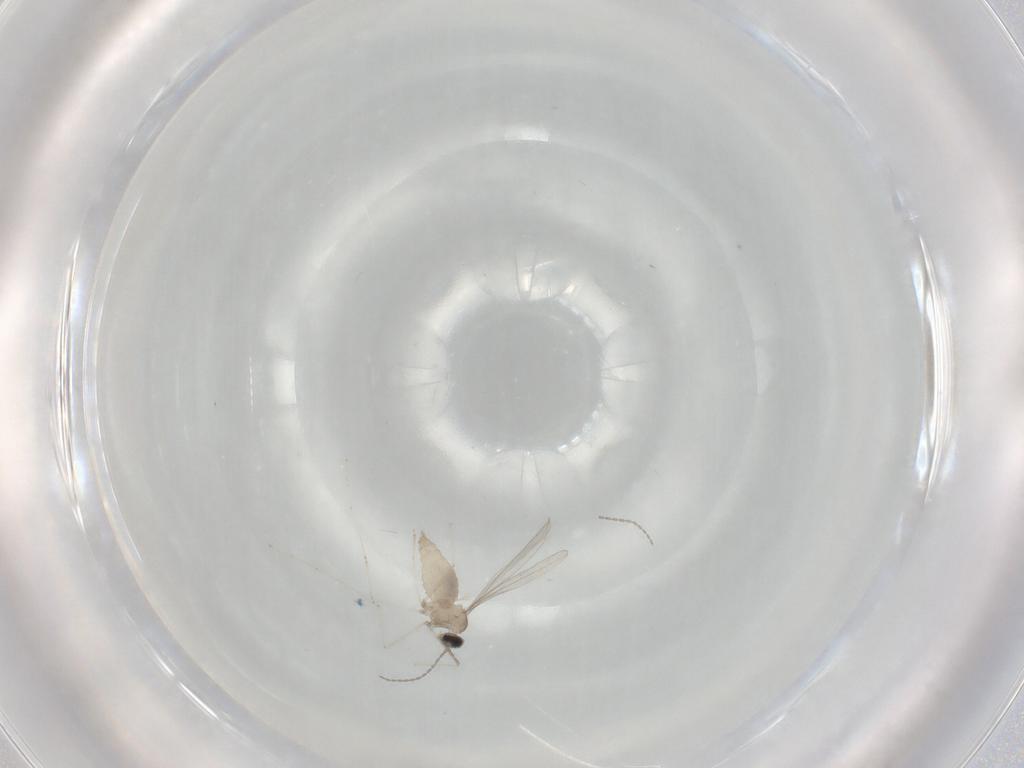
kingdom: Animalia
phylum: Arthropoda
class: Insecta
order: Diptera
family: Cecidomyiidae
